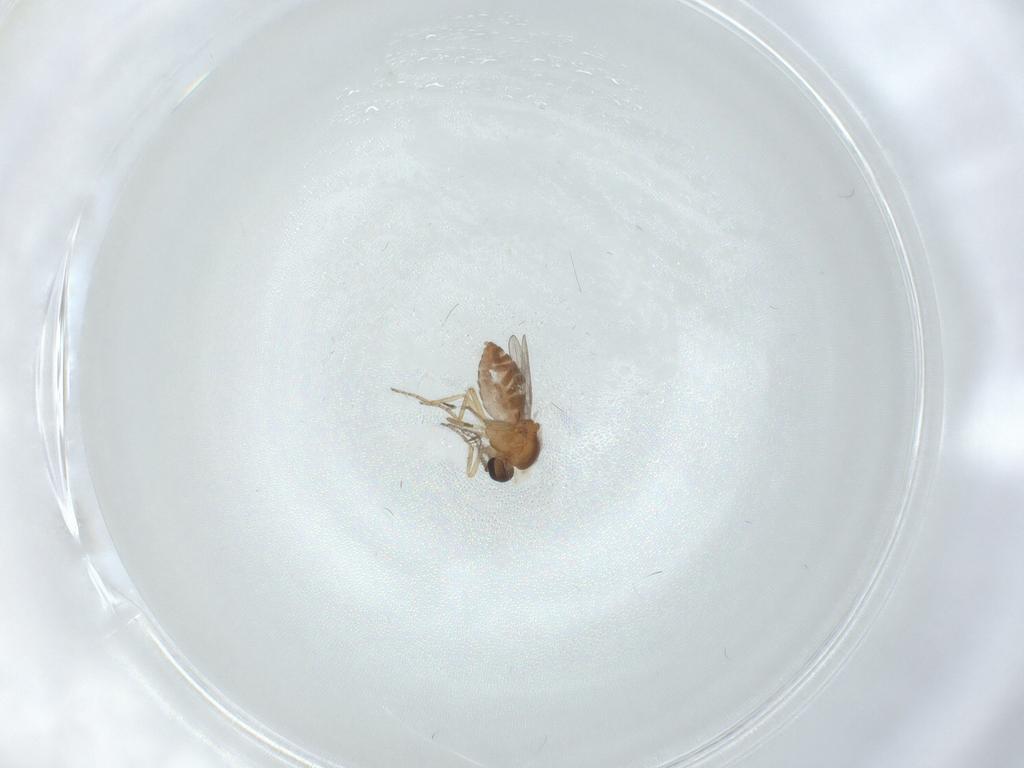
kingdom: Animalia
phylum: Arthropoda
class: Insecta
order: Diptera
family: Ceratopogonidae
